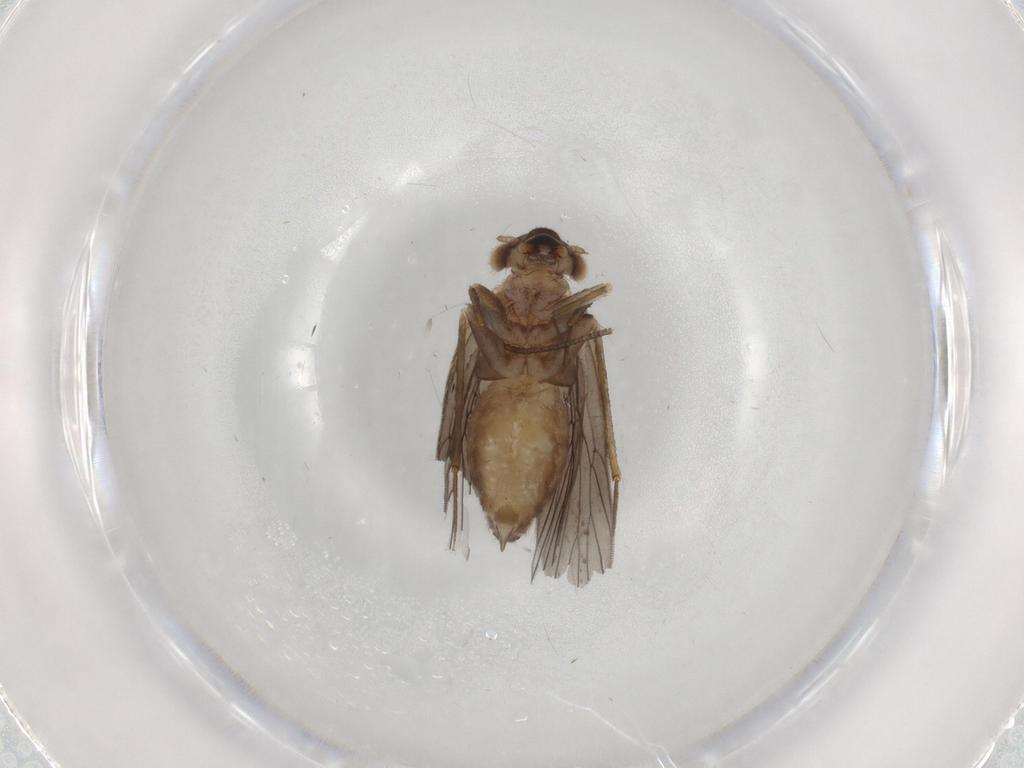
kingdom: Animalia
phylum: Arthropoda
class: Insecta
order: Psocodea
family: Lepidopsocidae
